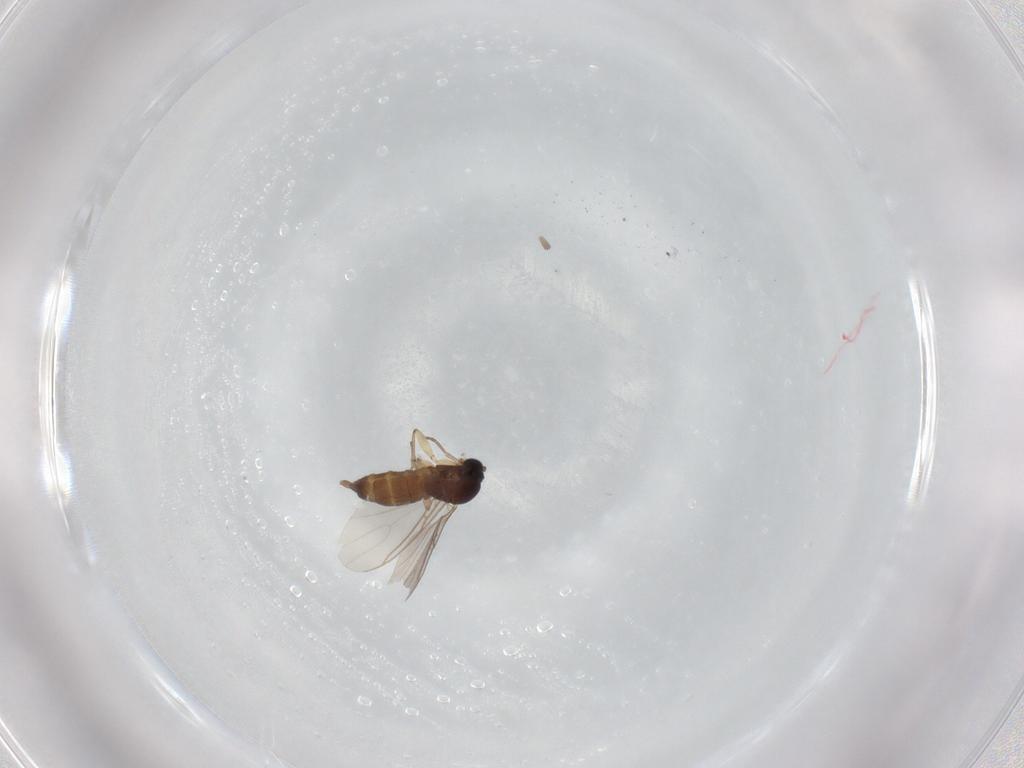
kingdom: Animalia
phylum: Arthropoda
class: Insecta
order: Diptera
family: Sciaridae
